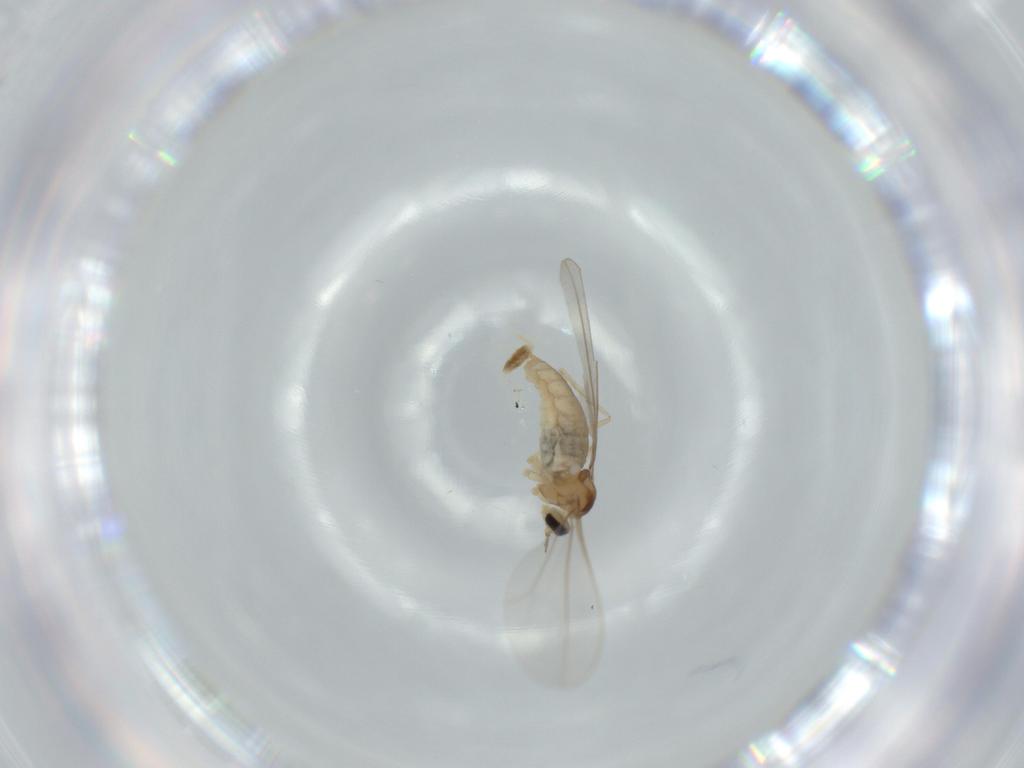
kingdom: Animalia
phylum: Arthropoda
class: Insecta
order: Diptera
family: Cecidomyiidae
